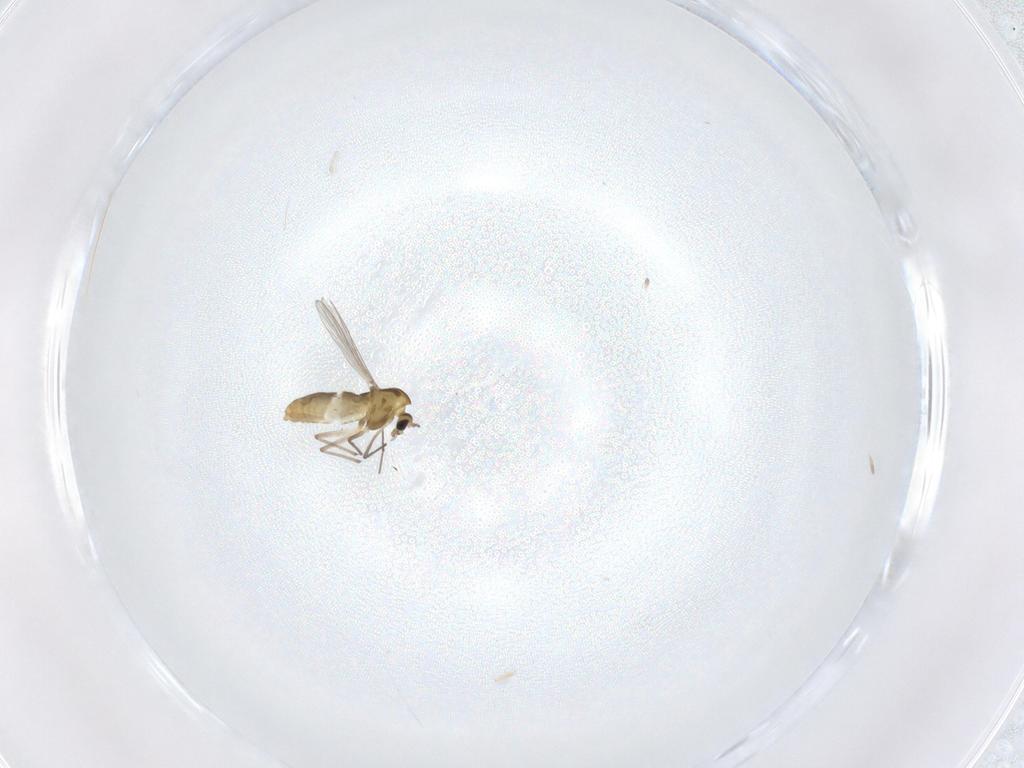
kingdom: Animalia
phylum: Arthropoda
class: Insecta
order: Diptera
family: Chironomidae
